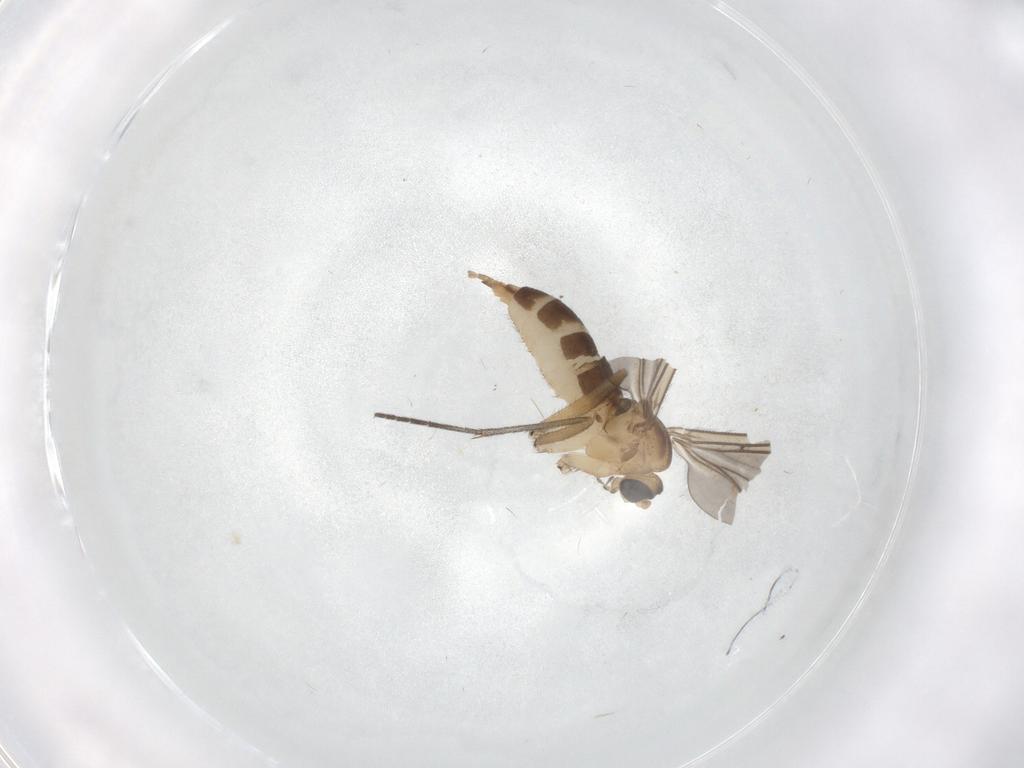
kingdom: Animalia
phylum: Arthropoda
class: Insecta
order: Diptera
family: Sciaridae
